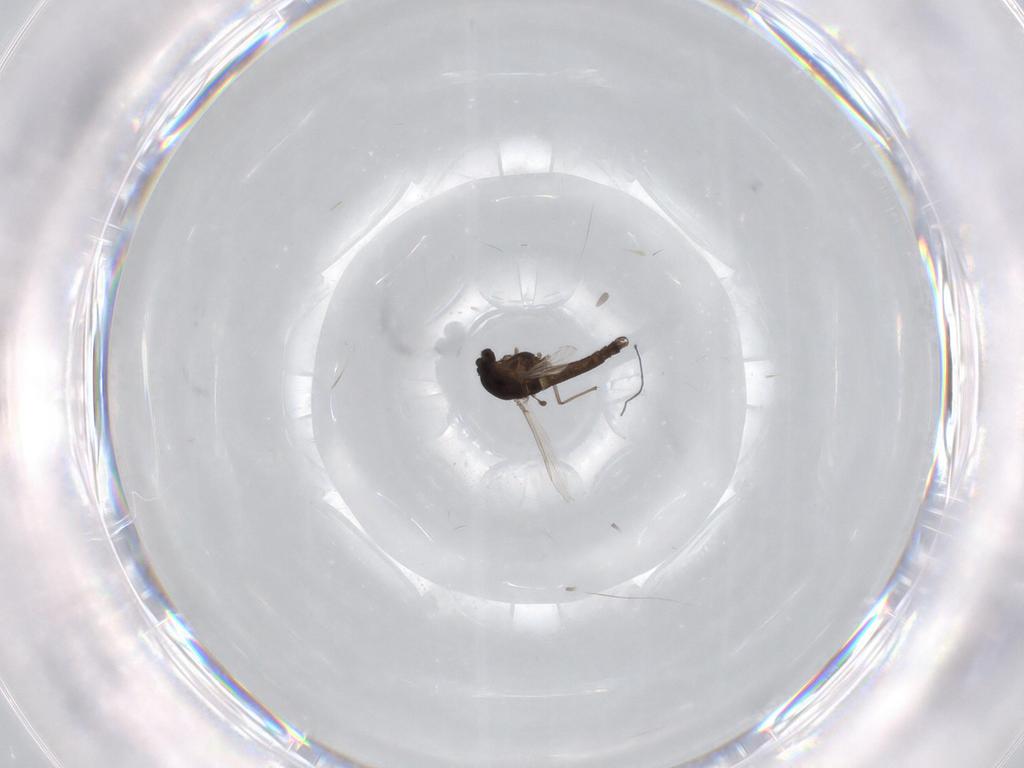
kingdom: Animalia
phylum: Arthropoda
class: Insecta
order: Diptera
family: Chironomidae
